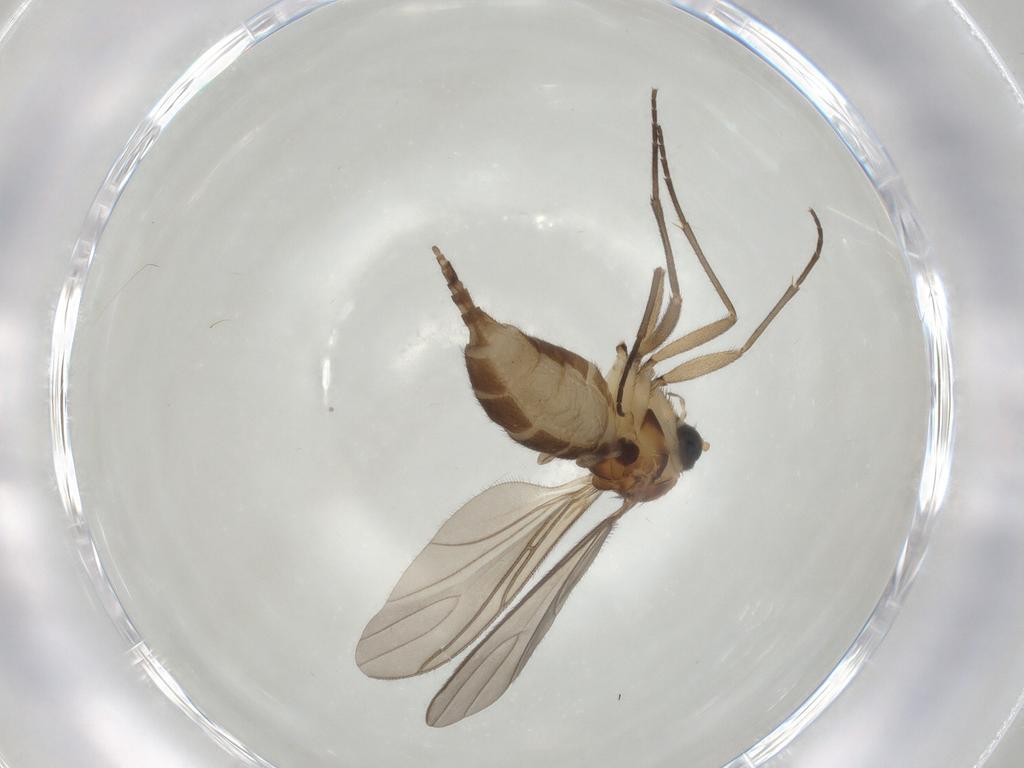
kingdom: Animalia
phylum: Arthropoda
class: Insecta
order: Diptera
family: Sciaridae
